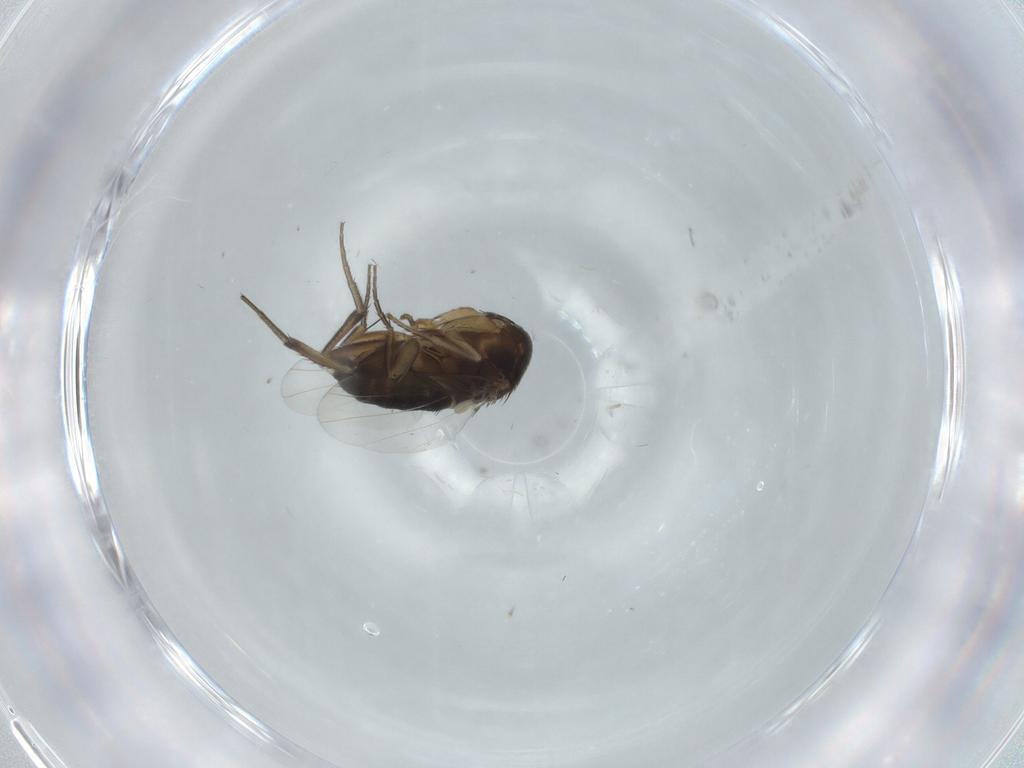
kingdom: Animalia
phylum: Arthropoda
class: Insecta
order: Diptera
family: Phoridae
